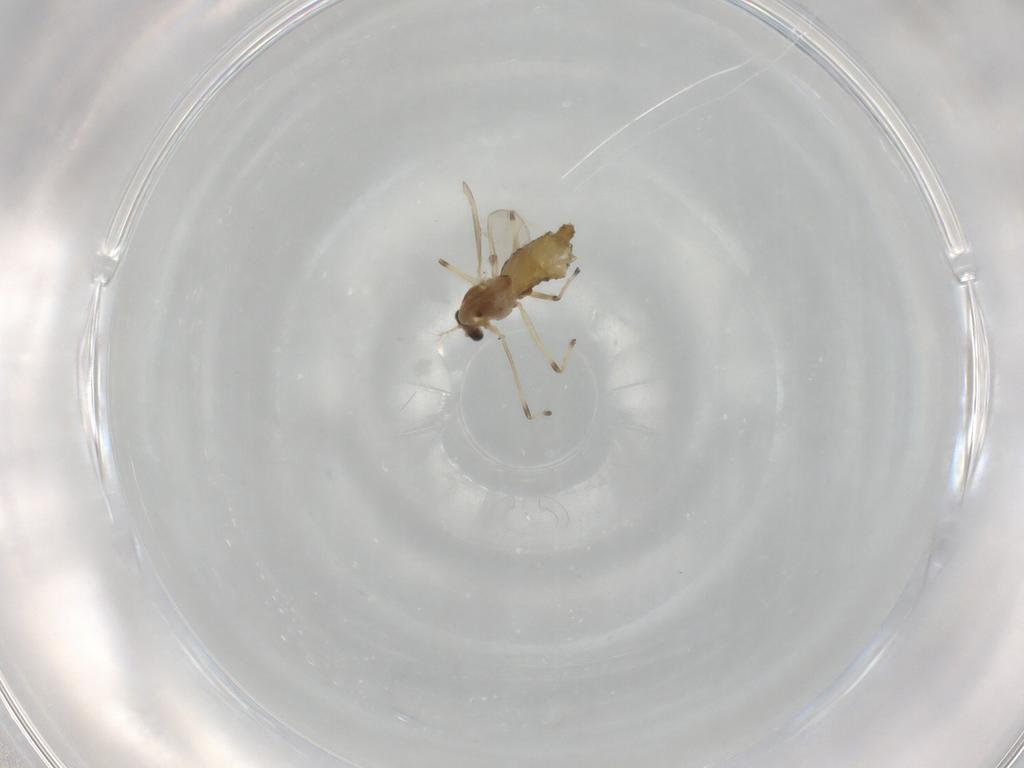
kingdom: Animalia
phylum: Arthropoda
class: Insecta
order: Diptera
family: Chironomidae
